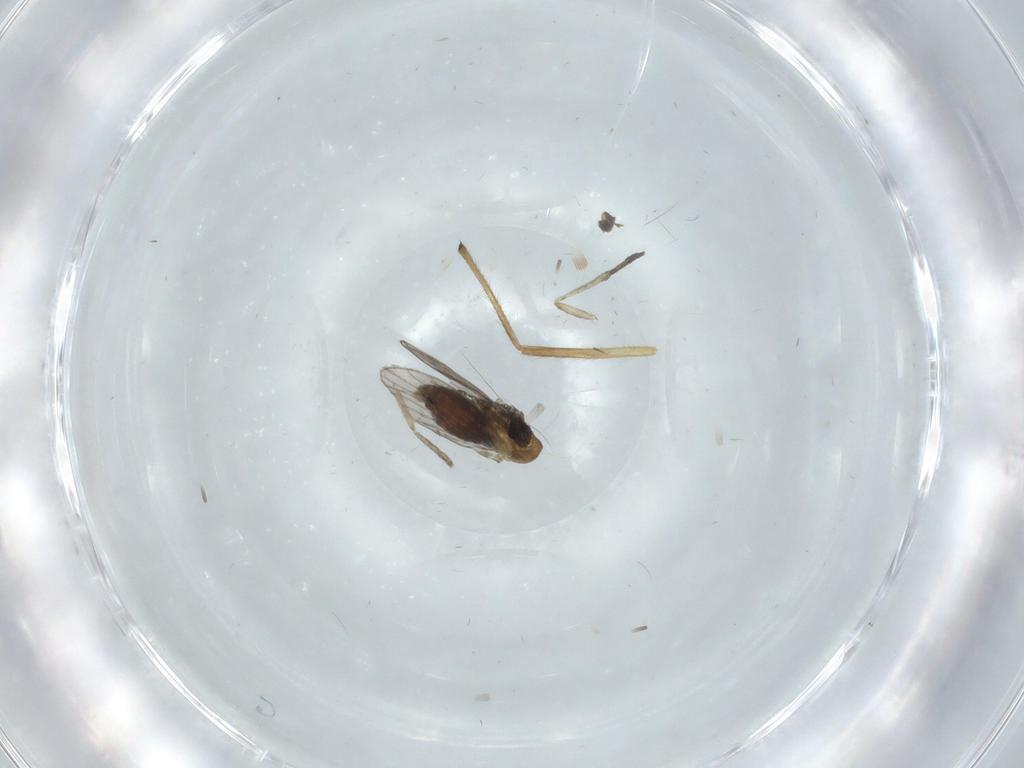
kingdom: Animalia
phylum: Arthropoda
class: Insecta
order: Diptera
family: Chironomidae
